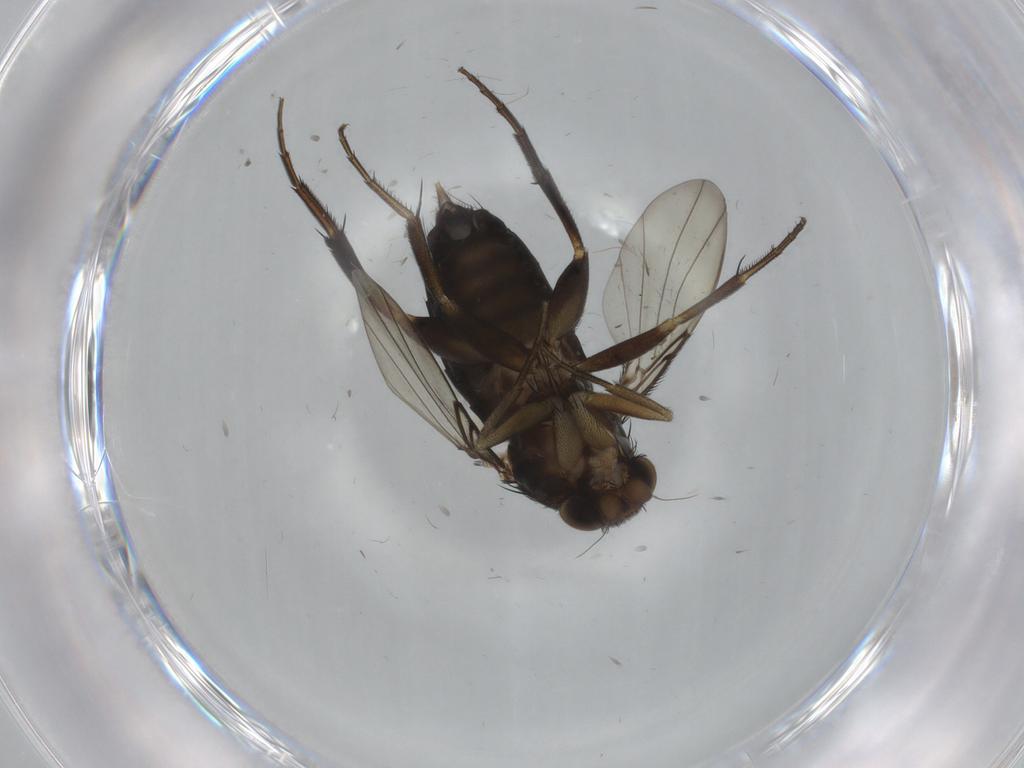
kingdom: Animalia
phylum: Arthropoda
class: Insecta
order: Diptera
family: Phoridae
